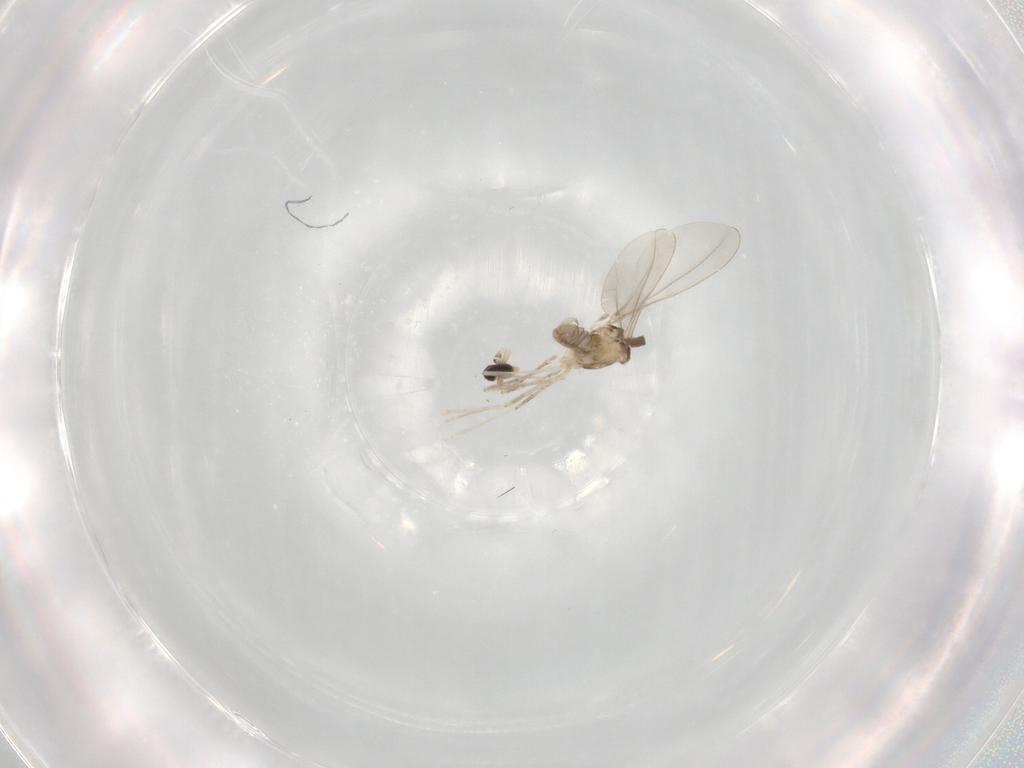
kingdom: Animalia
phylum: Arthropoda
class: Insecta
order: Diptera
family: Cecidomyiidae
